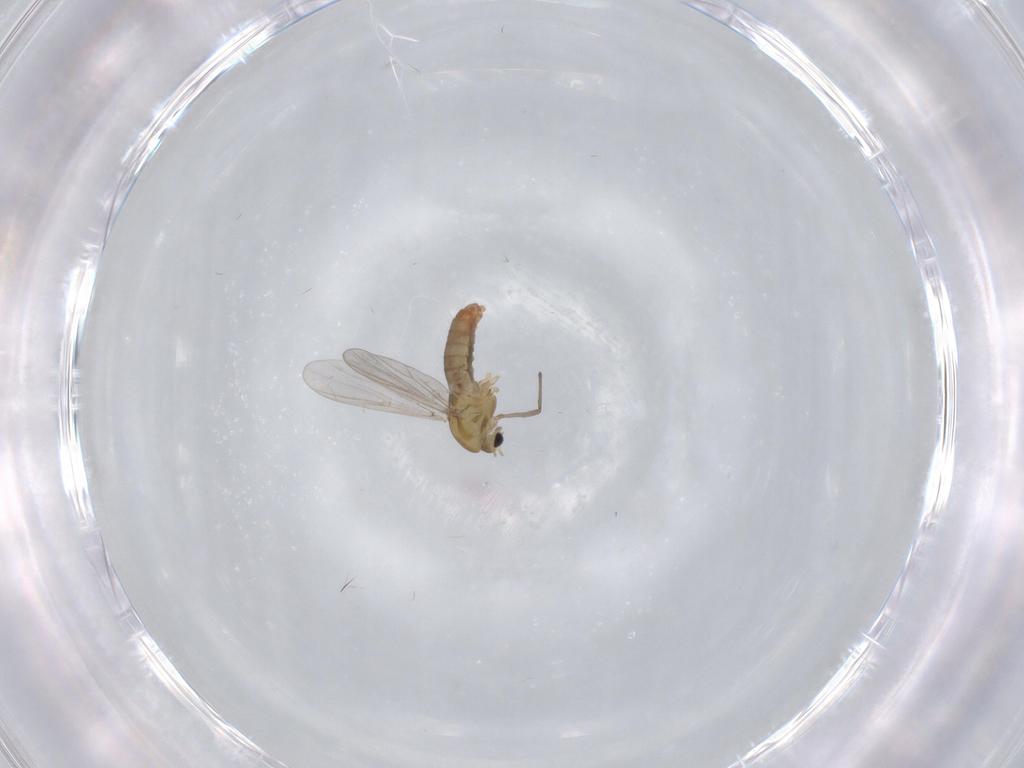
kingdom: Animalia
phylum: Arthropoda
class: Insecta
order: Diptera
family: Chironomidae
